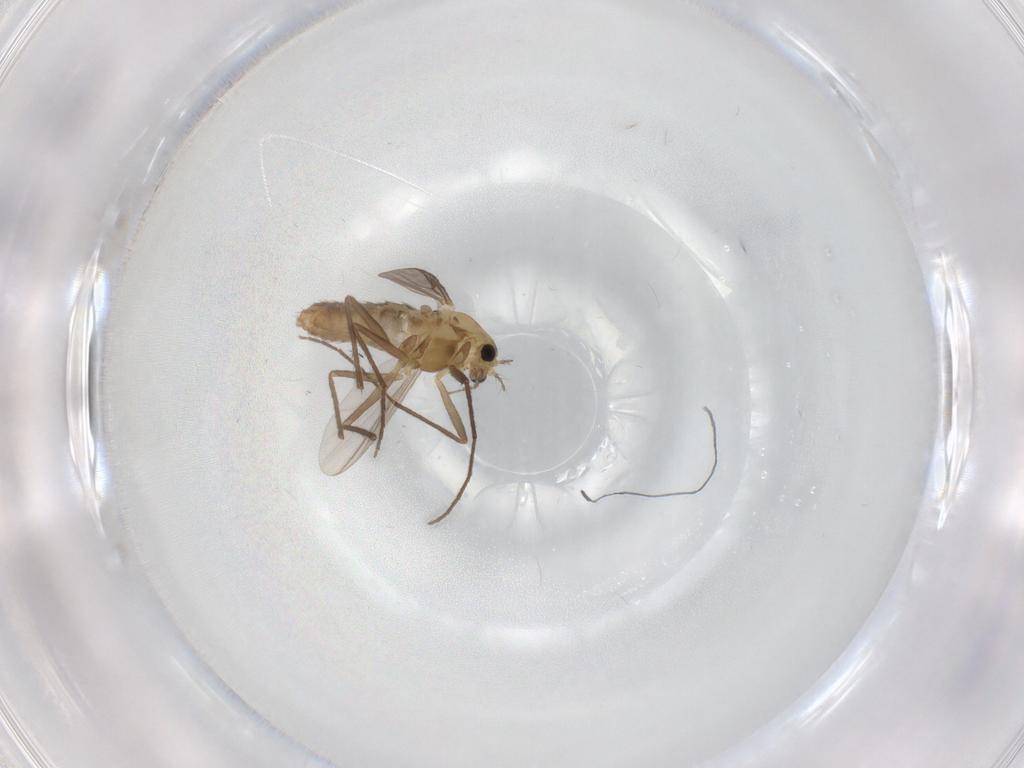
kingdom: Animalia
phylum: Arthropoda
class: Insecta
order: Diptera
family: Chironomidae
